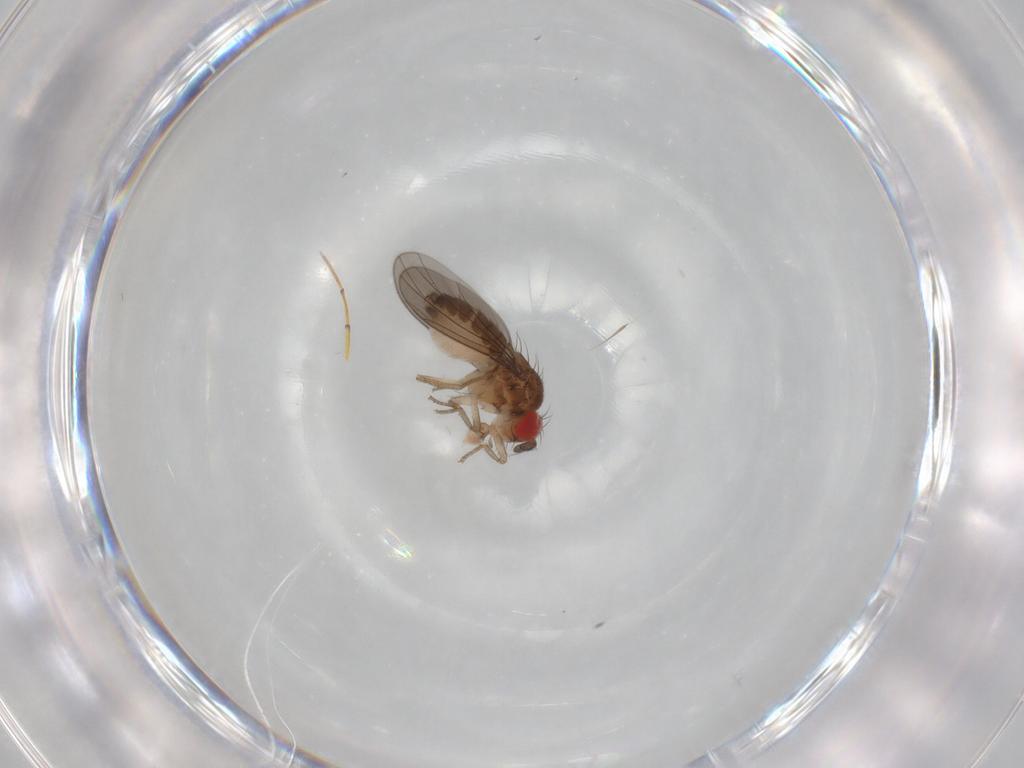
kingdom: Animalia
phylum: Arthropoda
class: Insecta
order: Diptera
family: Drosophilidae
